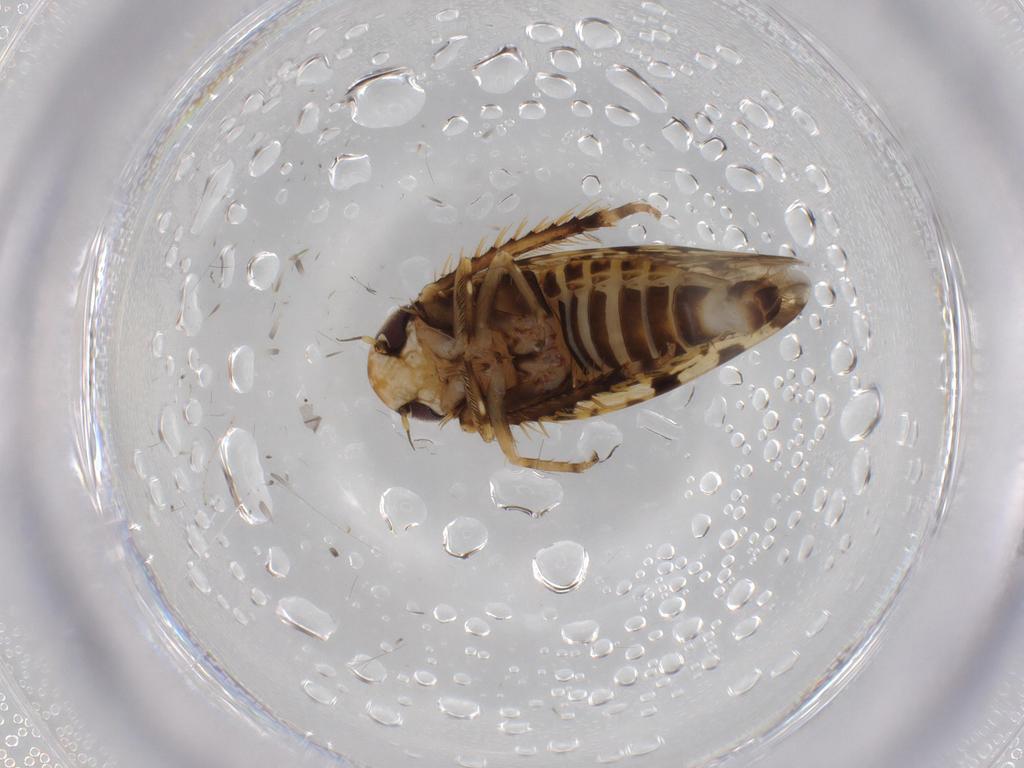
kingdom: Animalia
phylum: Arthropoda
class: Insecta
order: Hemiptera
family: Cicadellidae
